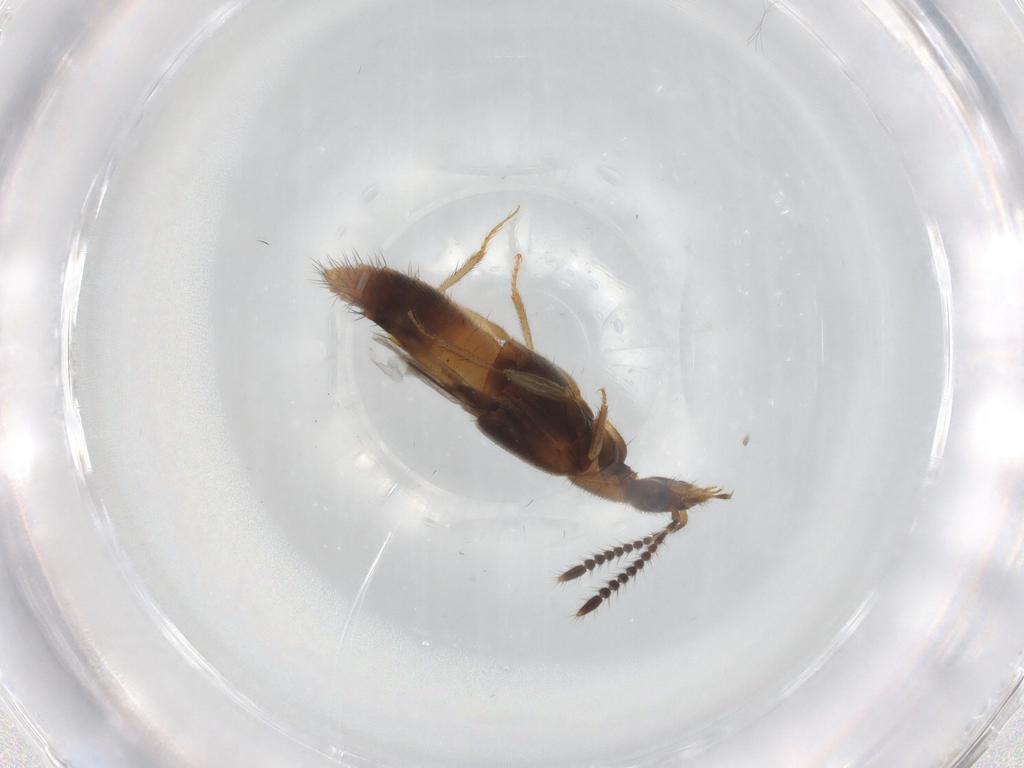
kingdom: Animalia
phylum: Arthropoda
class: Insecta
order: Coleoptera
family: Staphylinidae
